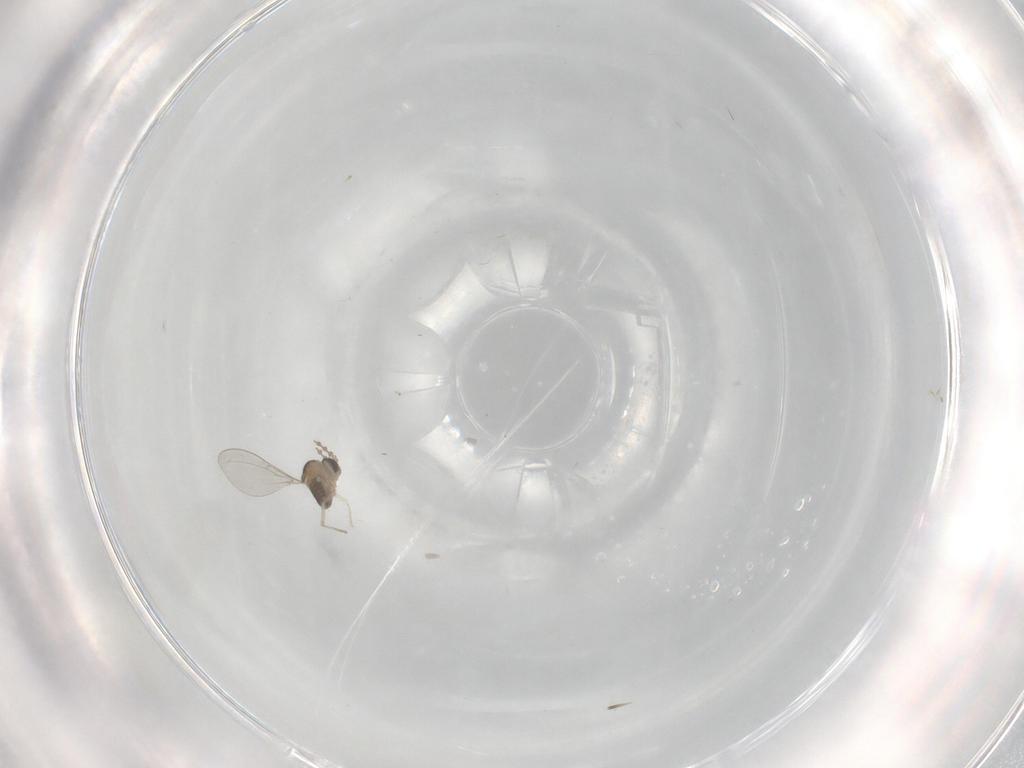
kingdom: Animalia
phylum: Arthropoda
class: Insecta
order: Diptera
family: Cecidomyiidae
